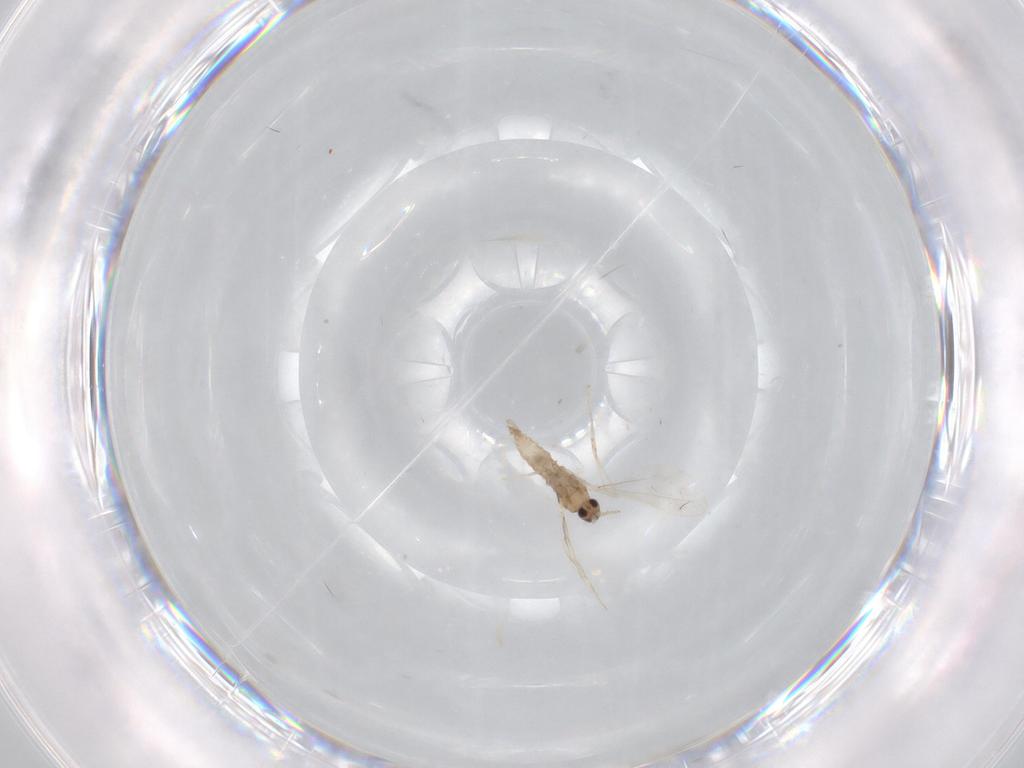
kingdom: Animalia
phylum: Arthropoda
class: Insecta
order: Diptera
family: Cecidomyiidae
